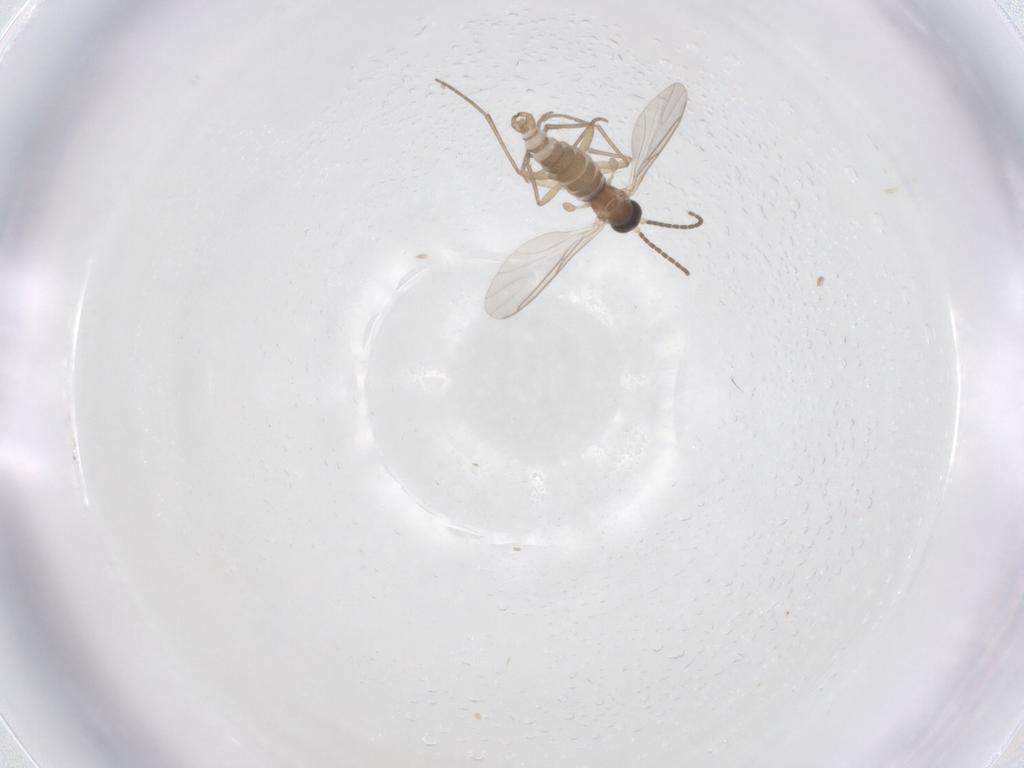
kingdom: Animalia
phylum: Arthropoda
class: Insecta
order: Diptera
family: Sciaridae
